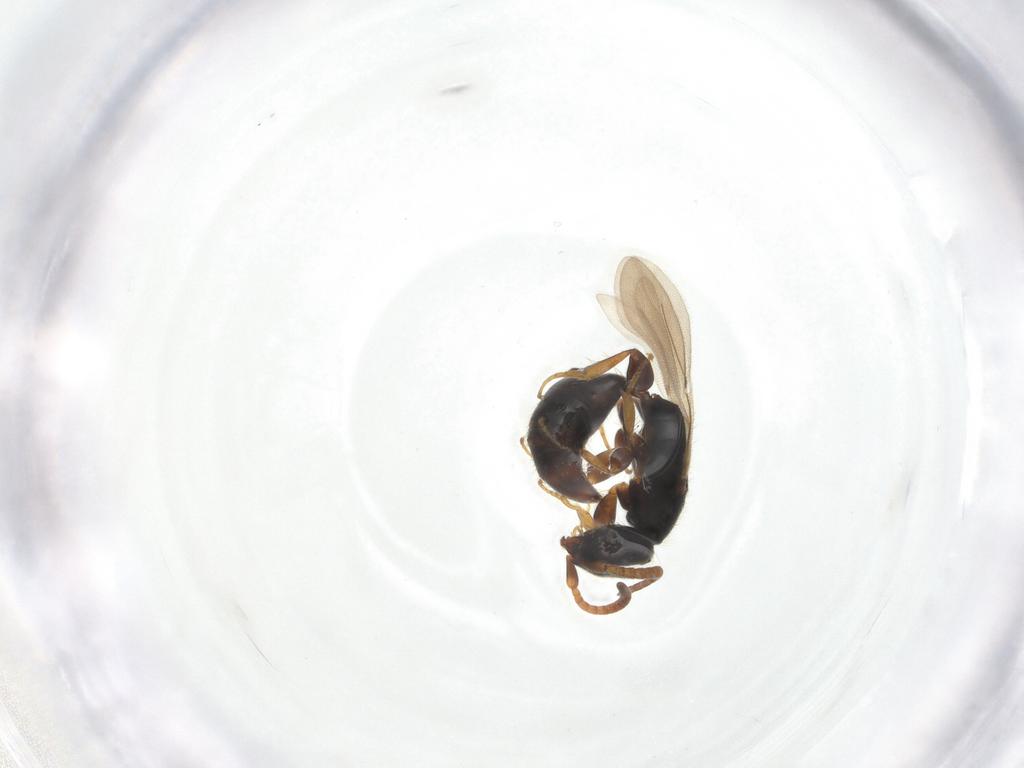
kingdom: Animalia
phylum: Arthropoda
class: Insecta
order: Hymenoptera
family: Bethylidae
